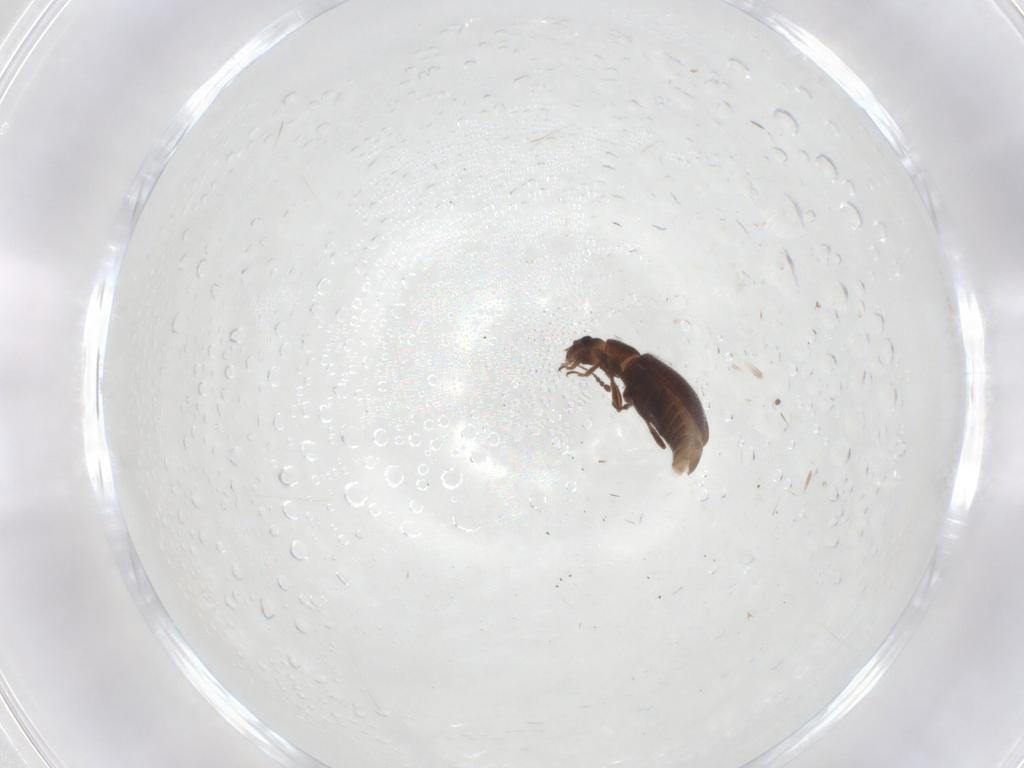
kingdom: Animalia
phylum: Arthropoda
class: Insecta
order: Coleoptera
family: Latridiidae
